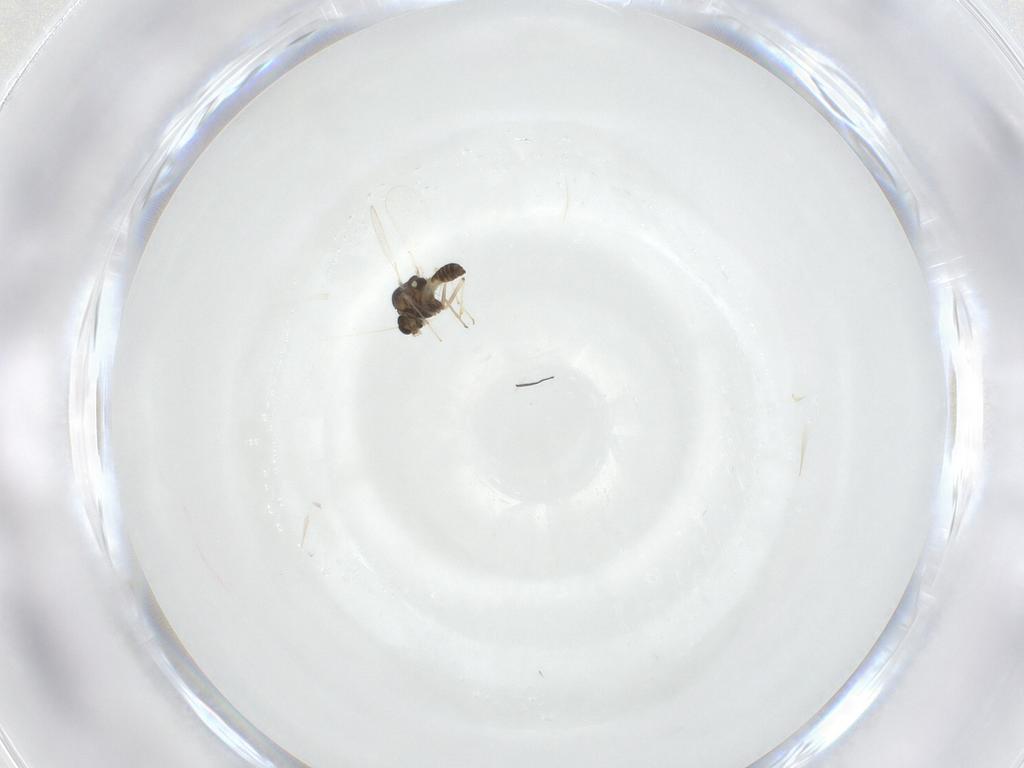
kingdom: Animalia
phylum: Arthropoda
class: Insecta
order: Diptera
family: Chironomidae
